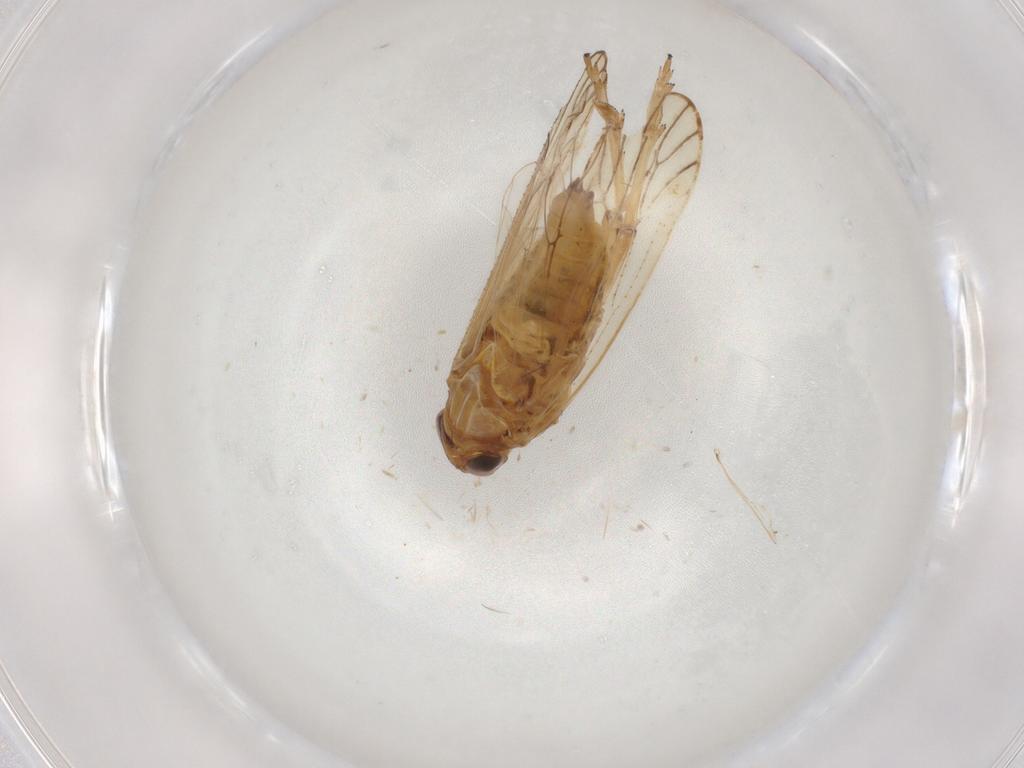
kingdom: Animalia
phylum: Arthropoda
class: Insecta
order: Hemiptera
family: Delphacidae
